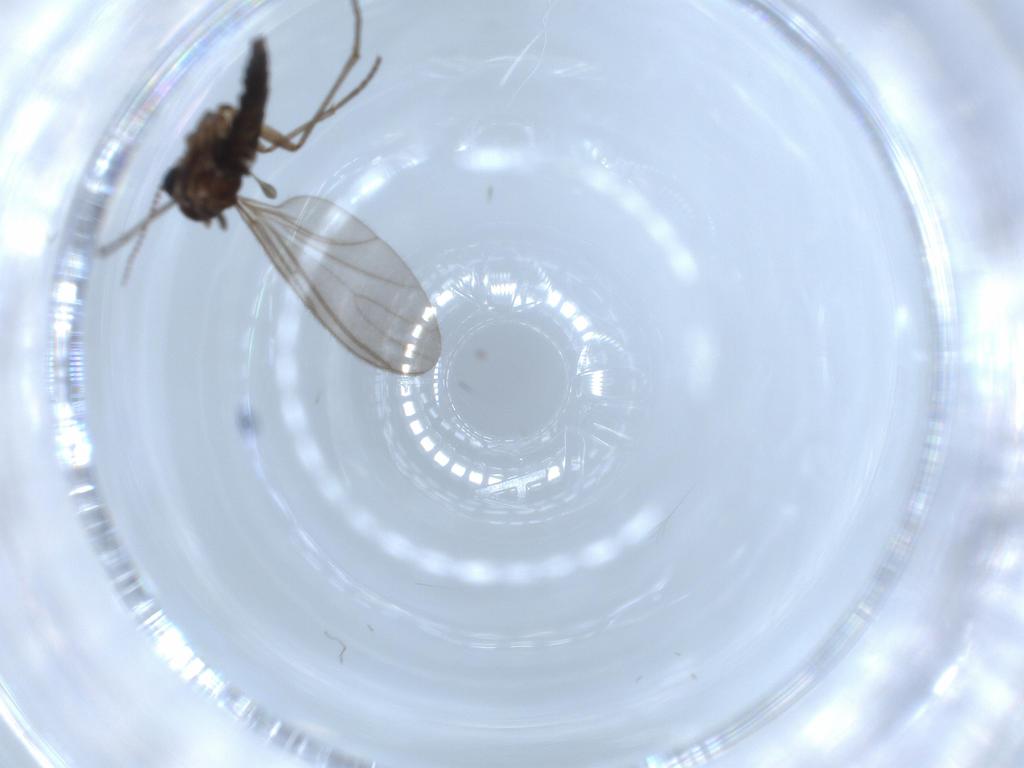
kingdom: Animalia
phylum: Arthropoda
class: Insecta
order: Diptera
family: Sciaridae
